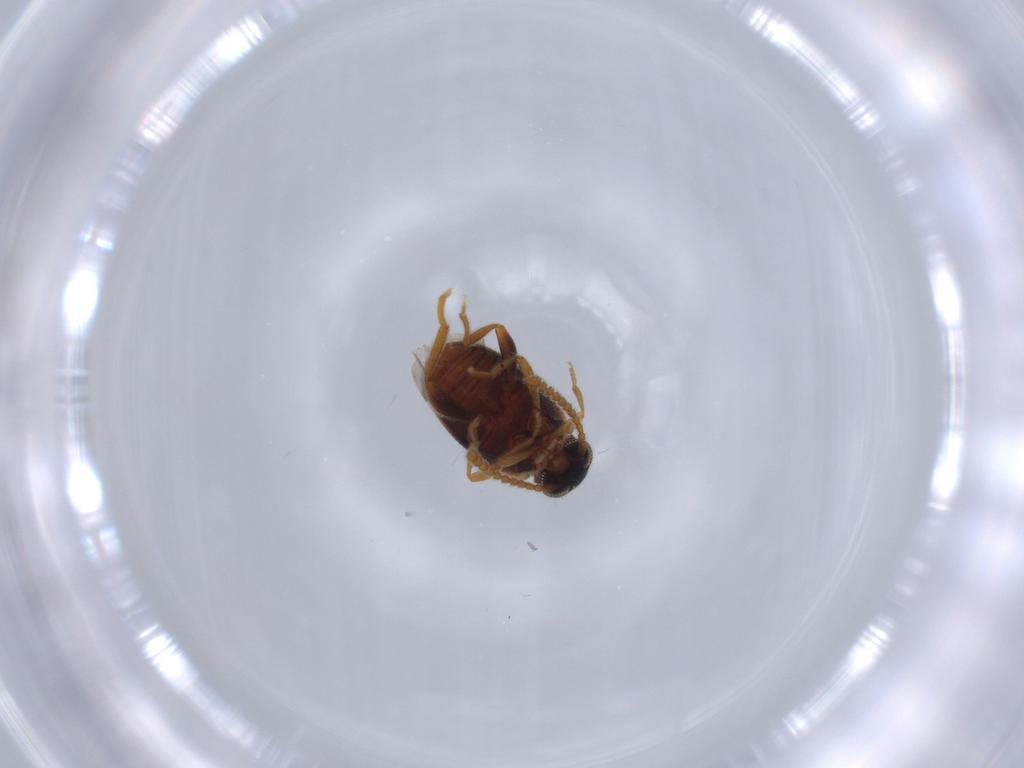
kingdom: Animalia
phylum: Arthropoda
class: Insecta
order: Coleoptera
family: Aderidae
